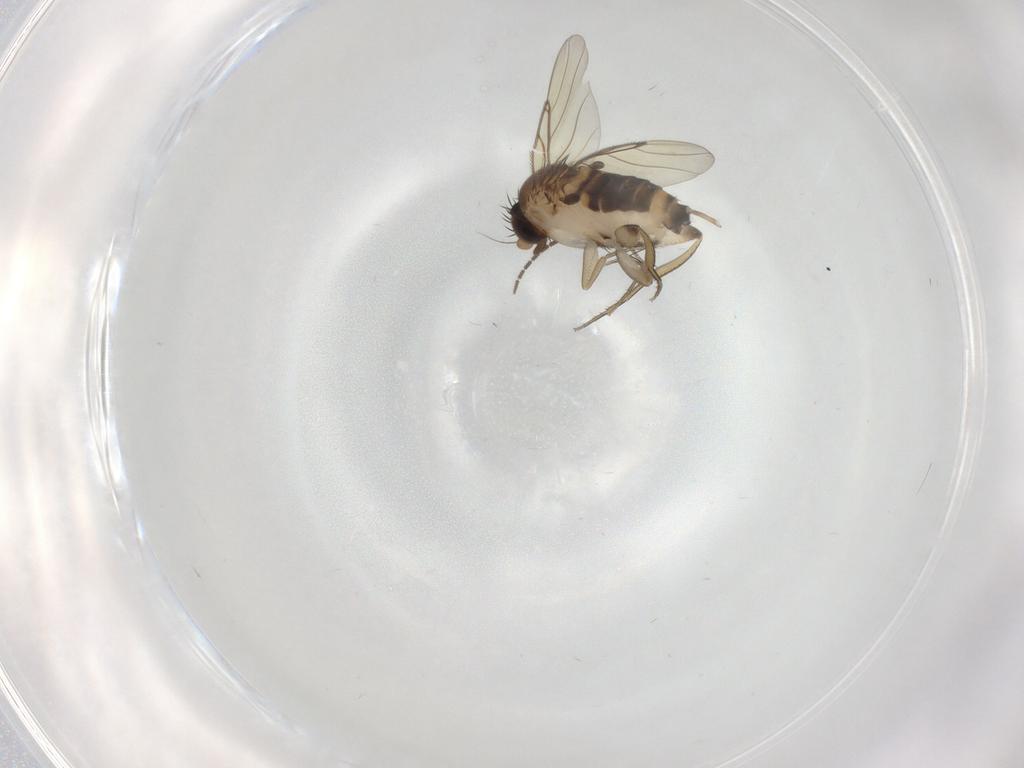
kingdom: Animalia
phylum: Arthropoda
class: Insecta
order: Diptera
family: Phoridae
